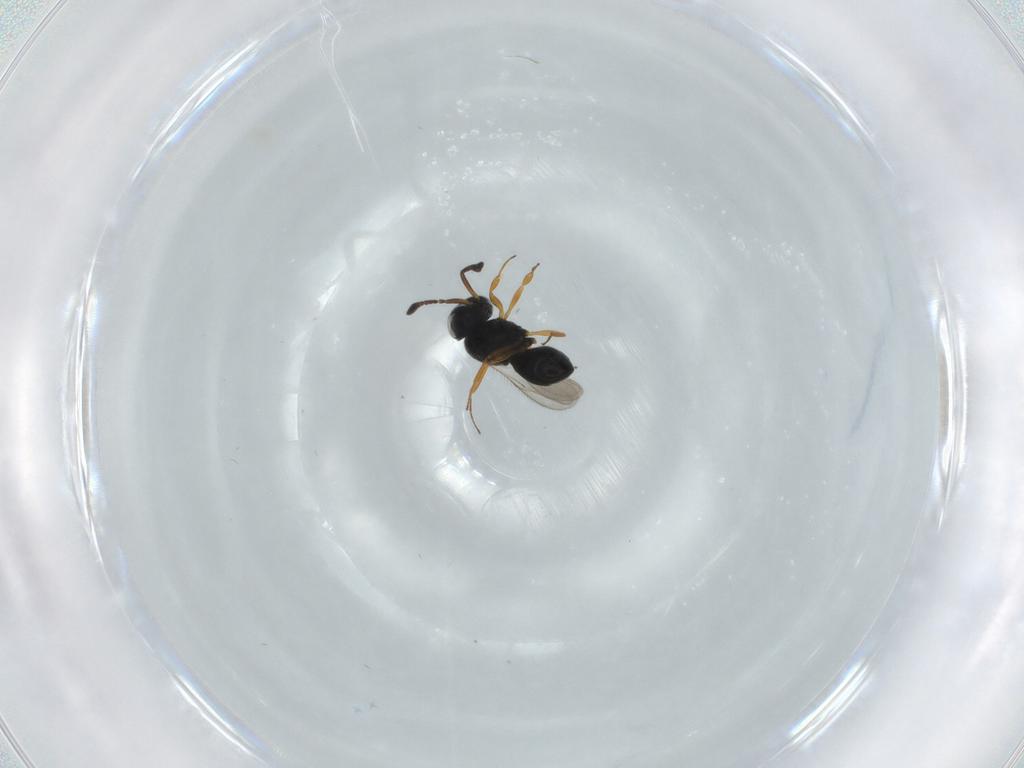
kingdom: Animalia
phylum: Arthropoda
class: Insecta
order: Hymenoptera
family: Scelionidae
